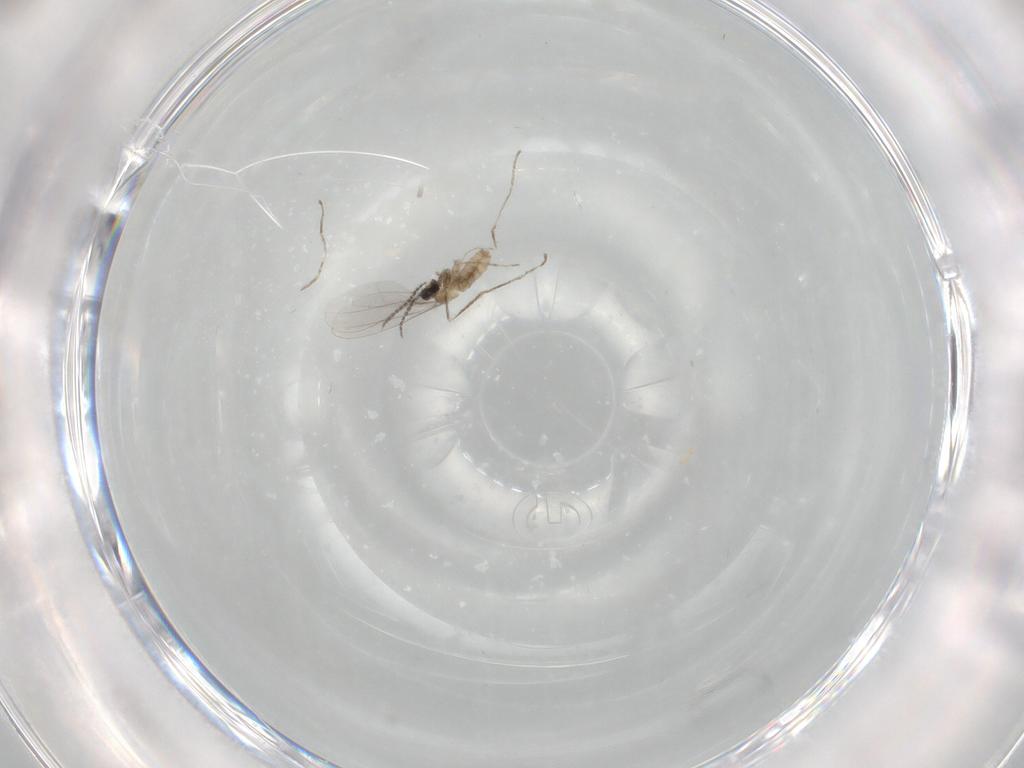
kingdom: Animalia
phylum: Arthropoda
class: Insecta
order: Diptera
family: Cecidomyiidae
